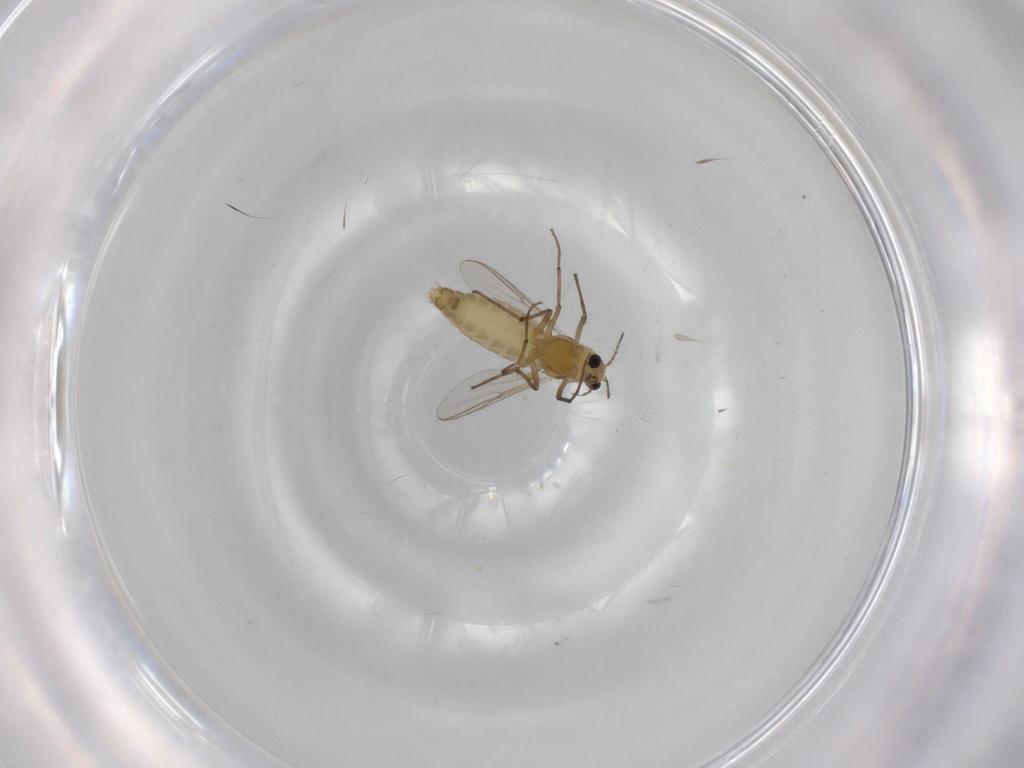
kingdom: Animalia
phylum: Arthropoda
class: Insecta
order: Diptera
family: Chironomidae
